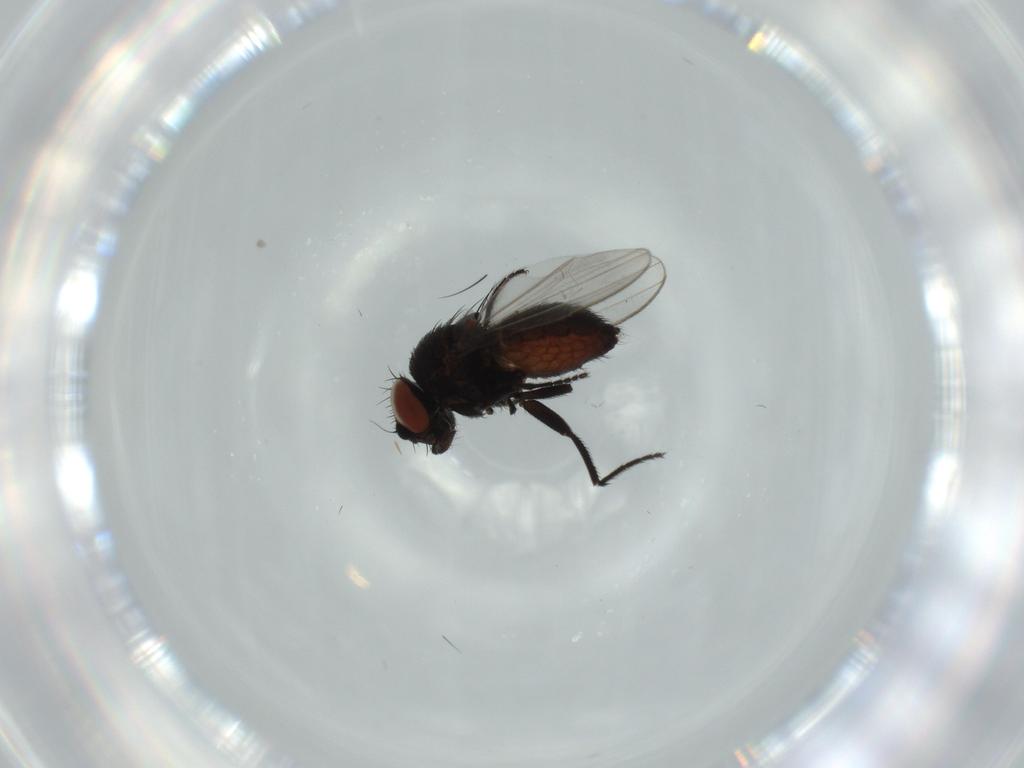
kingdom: Animalia
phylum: Arthropoda
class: Insecta
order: Diptera
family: Milichiidae
